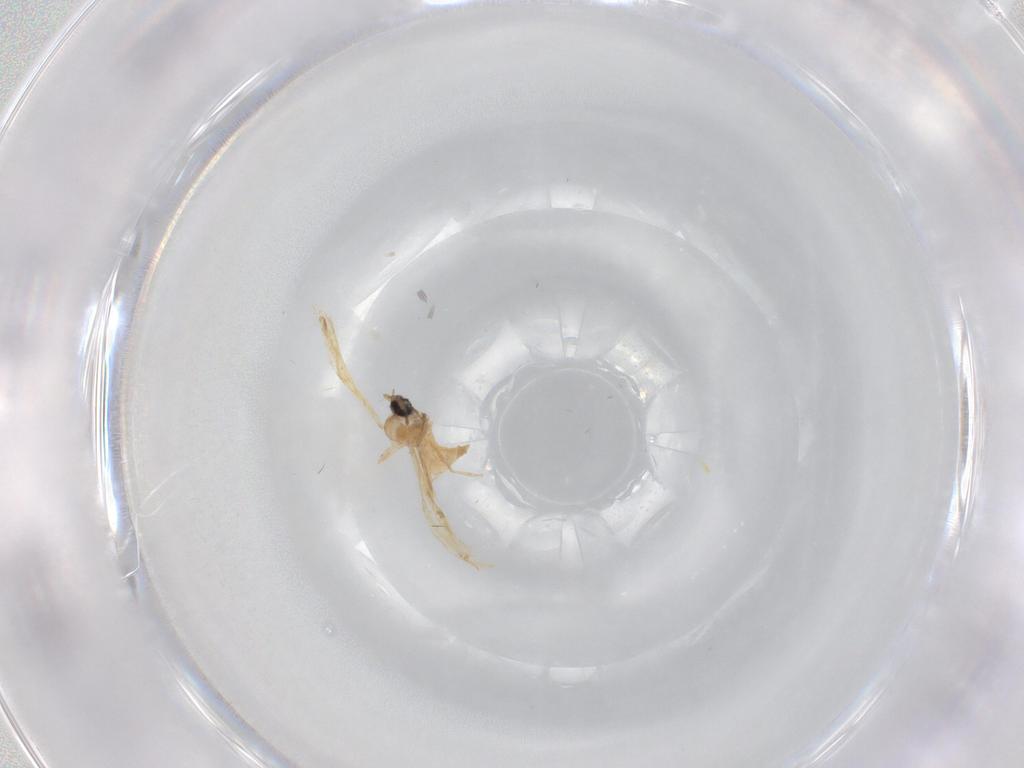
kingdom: Animalia
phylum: Arthropoda
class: Insecta
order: Diptera
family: Cecidomyiidae
